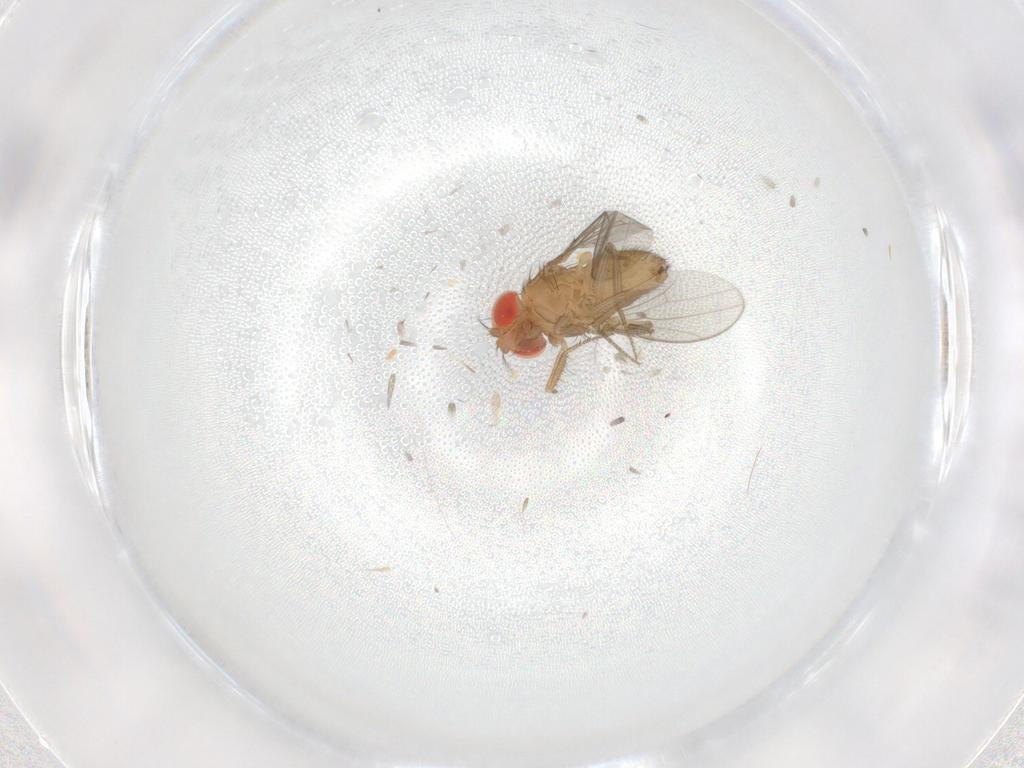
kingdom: Animalia
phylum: Arthropoda
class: Insecta
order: Diptera
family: Drosophilidae
